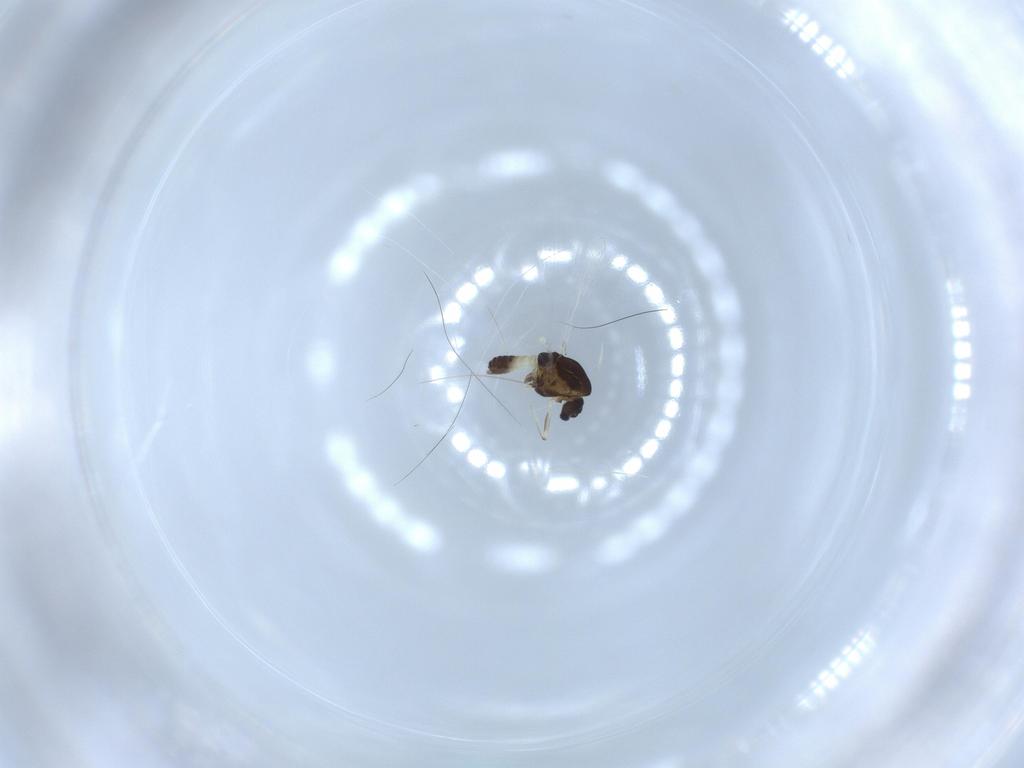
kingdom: Animalia
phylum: Arthropoda
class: Insecta
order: Diptera
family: Chironomidae
